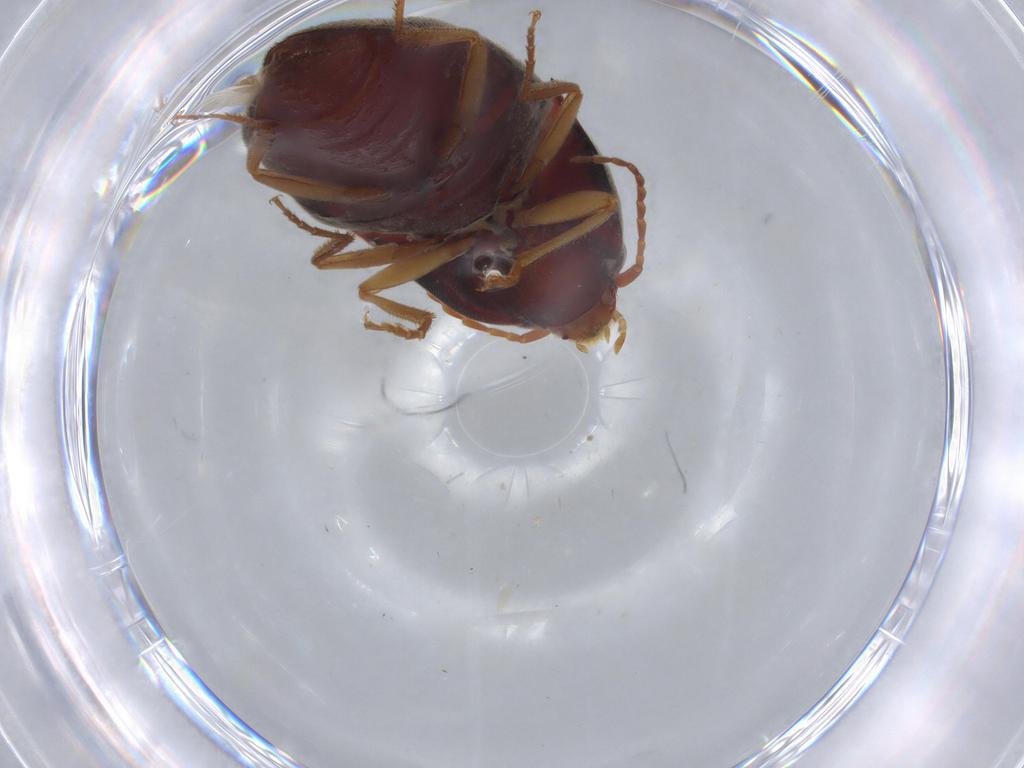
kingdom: Animalia
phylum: Arthropoda
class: Insecta
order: Coleoptera
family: Elateridae
